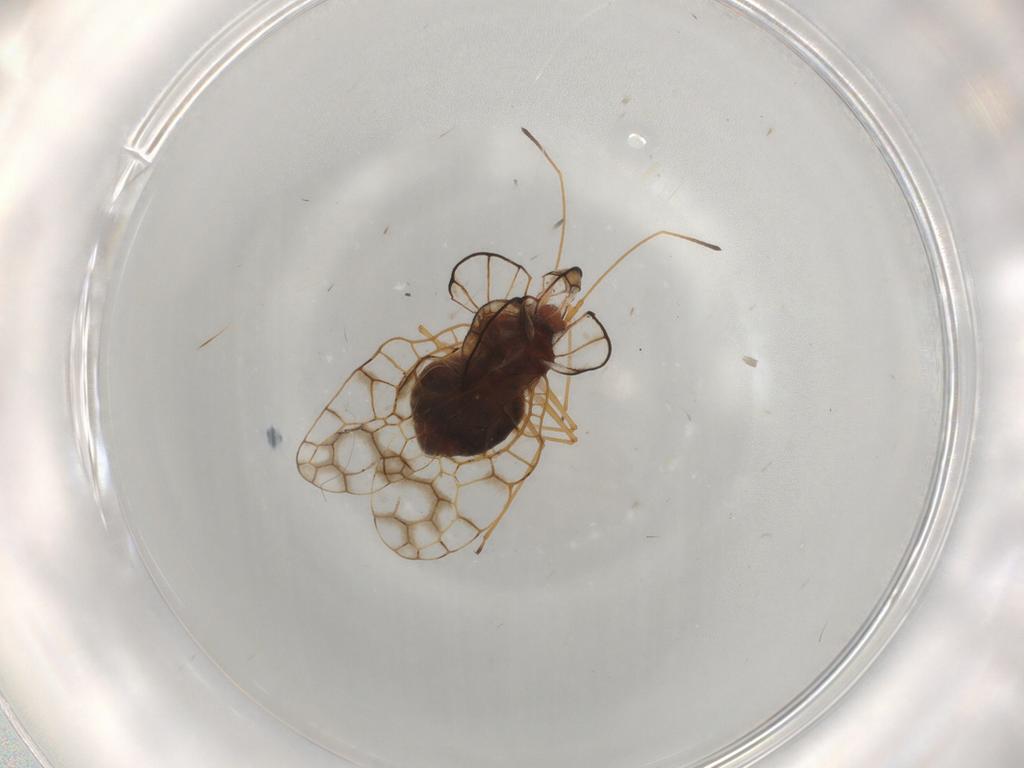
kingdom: Animalia
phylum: Arthropoda
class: Insecta
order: Hemiptera
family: Tingidae
